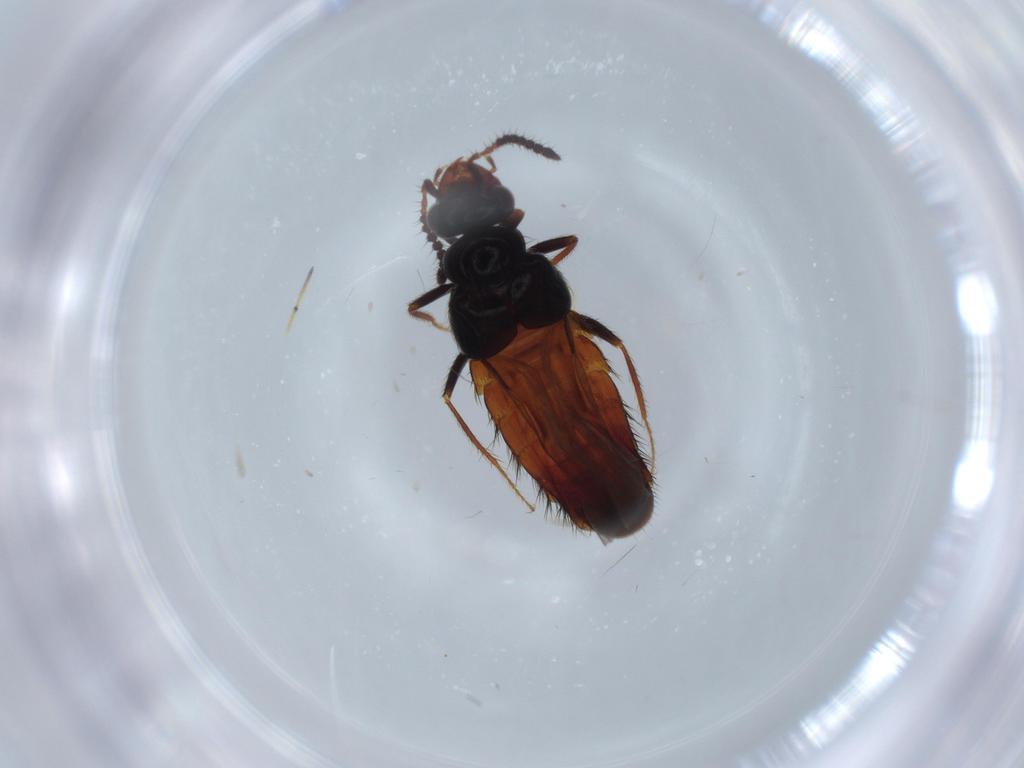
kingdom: Animalia
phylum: Arthropoda
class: Insecta
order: Coleoptera
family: Staphylinidae
